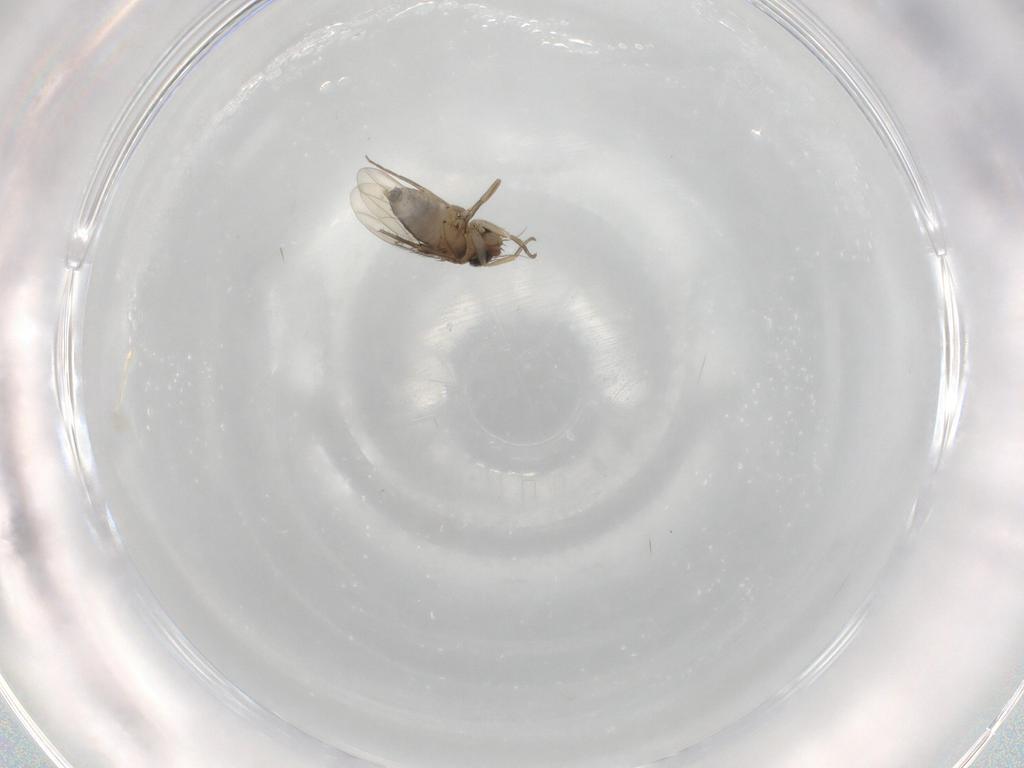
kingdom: Animalia
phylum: Arthropoda
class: Insecta
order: Diptera
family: Phoridae
